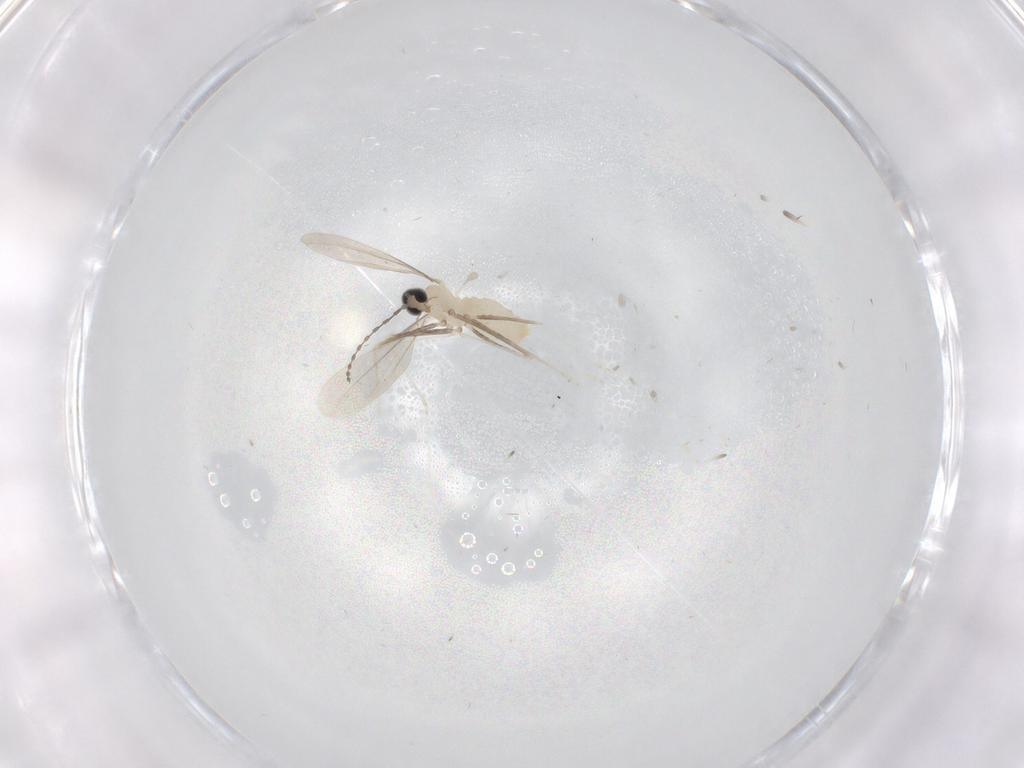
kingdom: Animalia
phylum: Arthropoda
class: Insecta
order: Diptera
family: Cecidomyiidae
